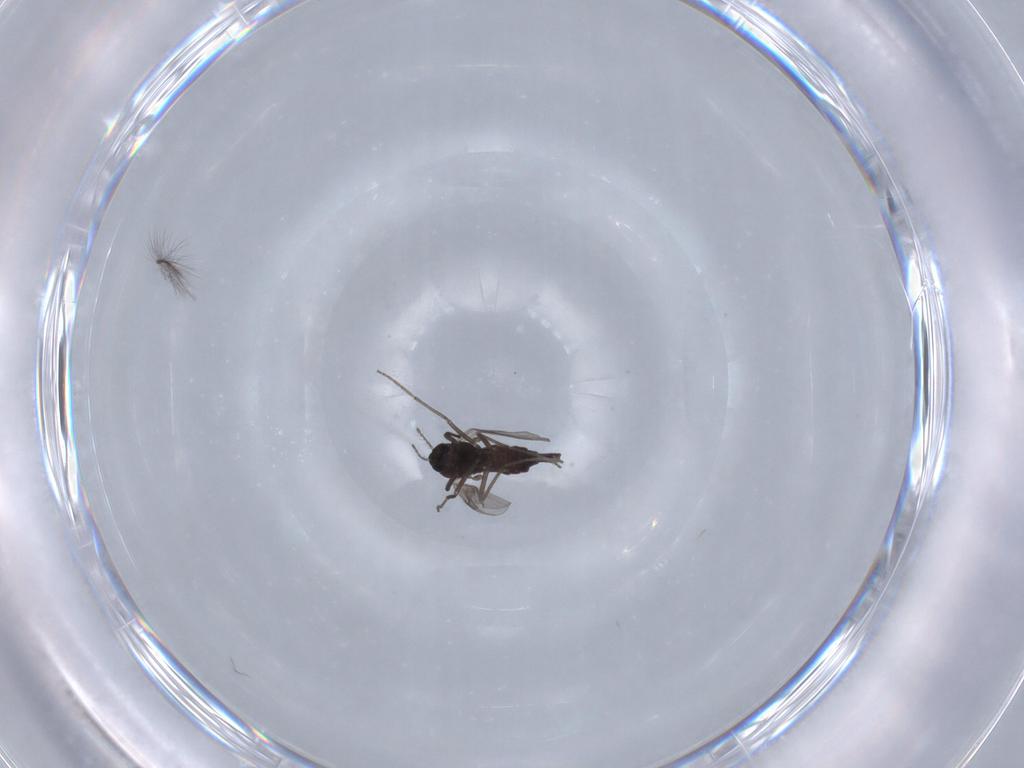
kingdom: Animalia
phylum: Arthropoda
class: Insecta
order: Diptera
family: Chironomidae
